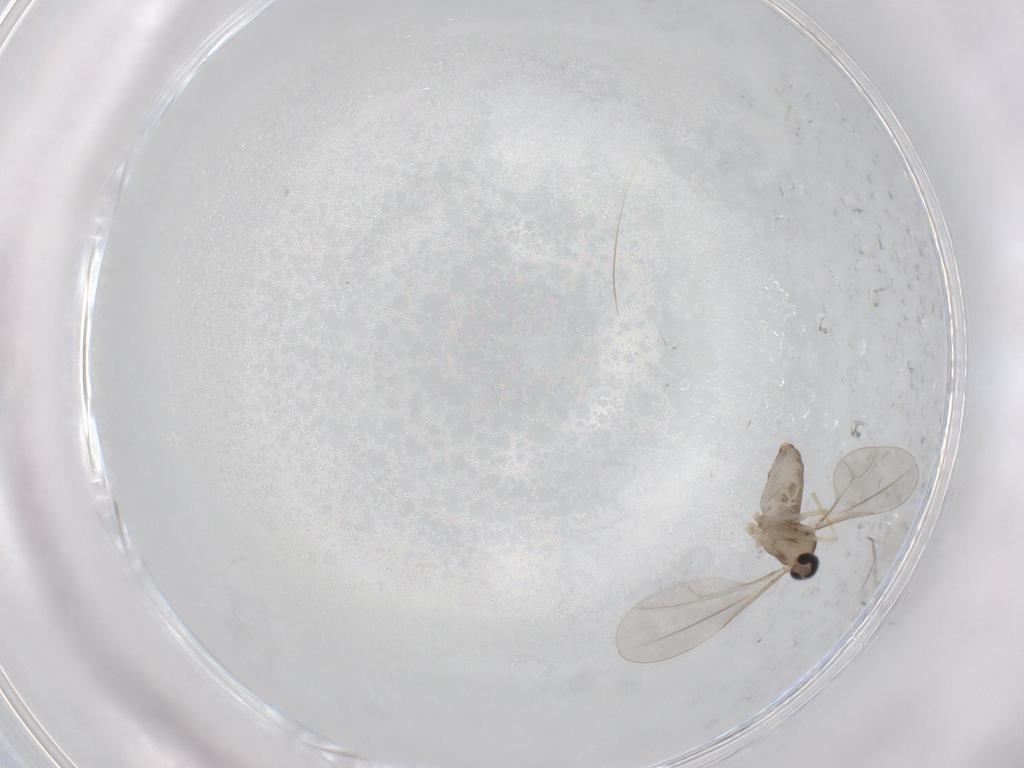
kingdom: Animalia
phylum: Arthropoda
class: Insecta
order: Diptera
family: Cecidomyiidae
